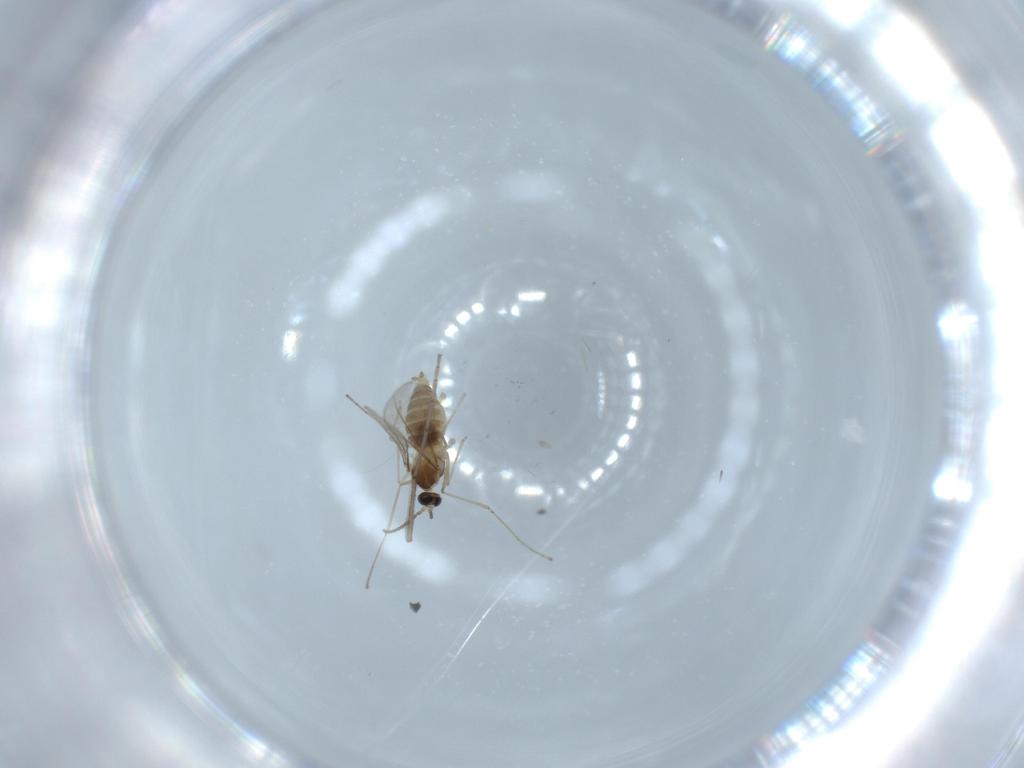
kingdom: Animalia
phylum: Arthropoda
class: Insecta
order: Diptera
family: Cecidomyiidae
